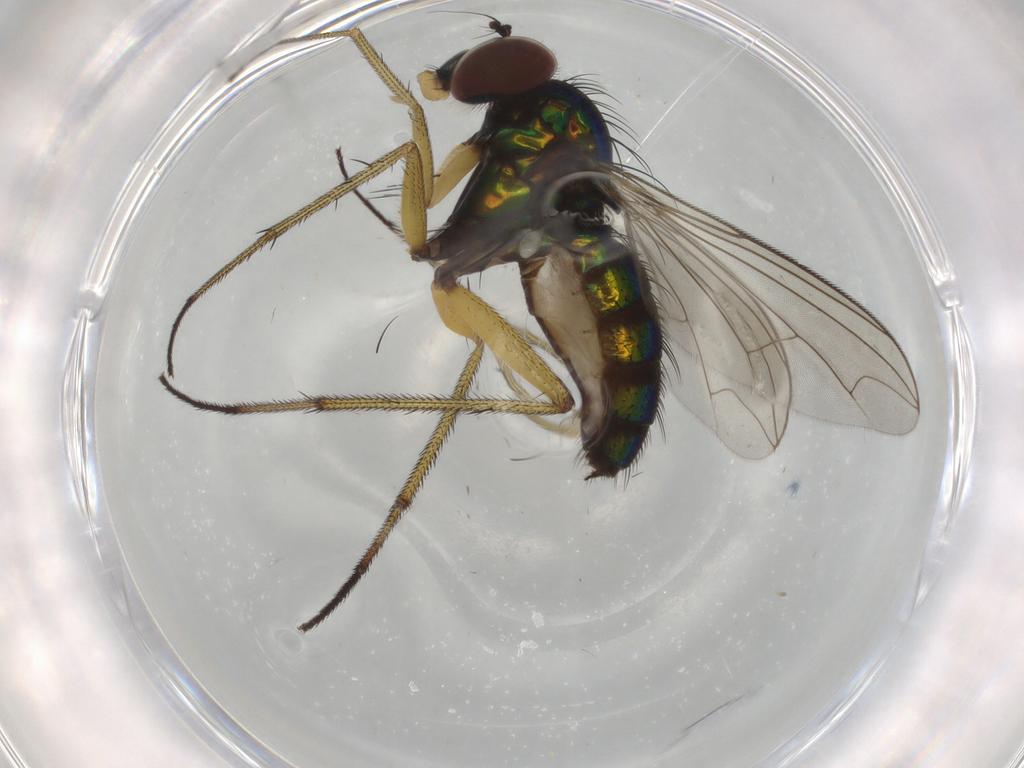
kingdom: Animalia
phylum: Arthropoda
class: Insecta
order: Diptera
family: Dolichopodidae
